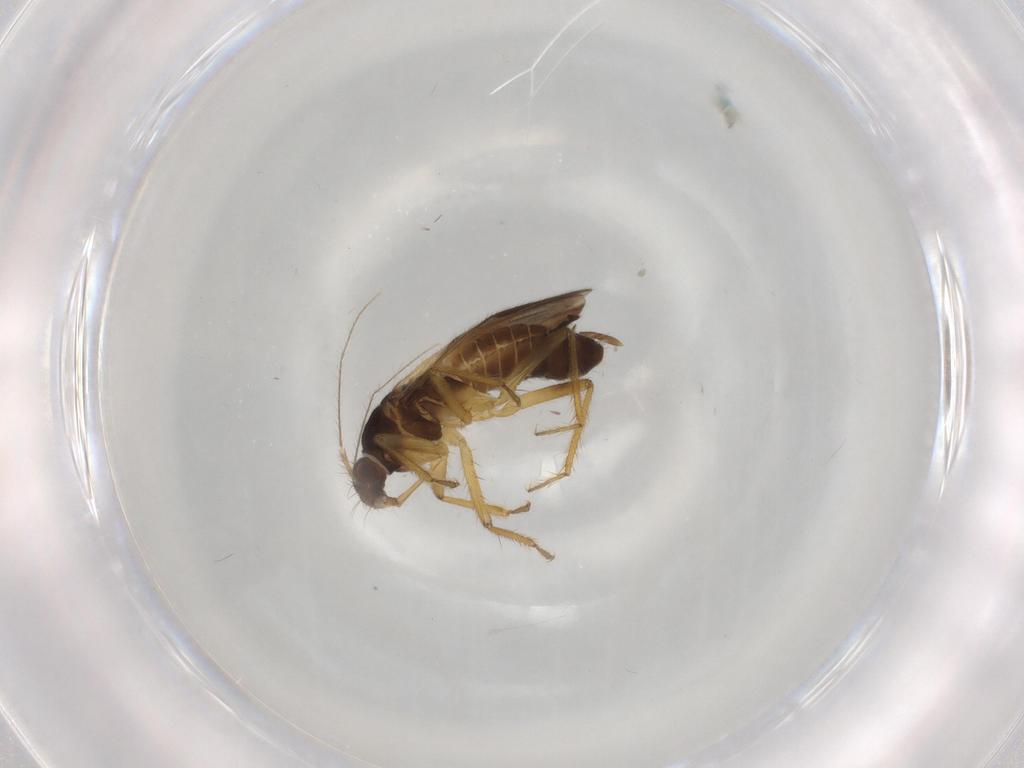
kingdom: Animalia
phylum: Arthropoda
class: Insecta
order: Hemiptera
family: Ceratocombidae
